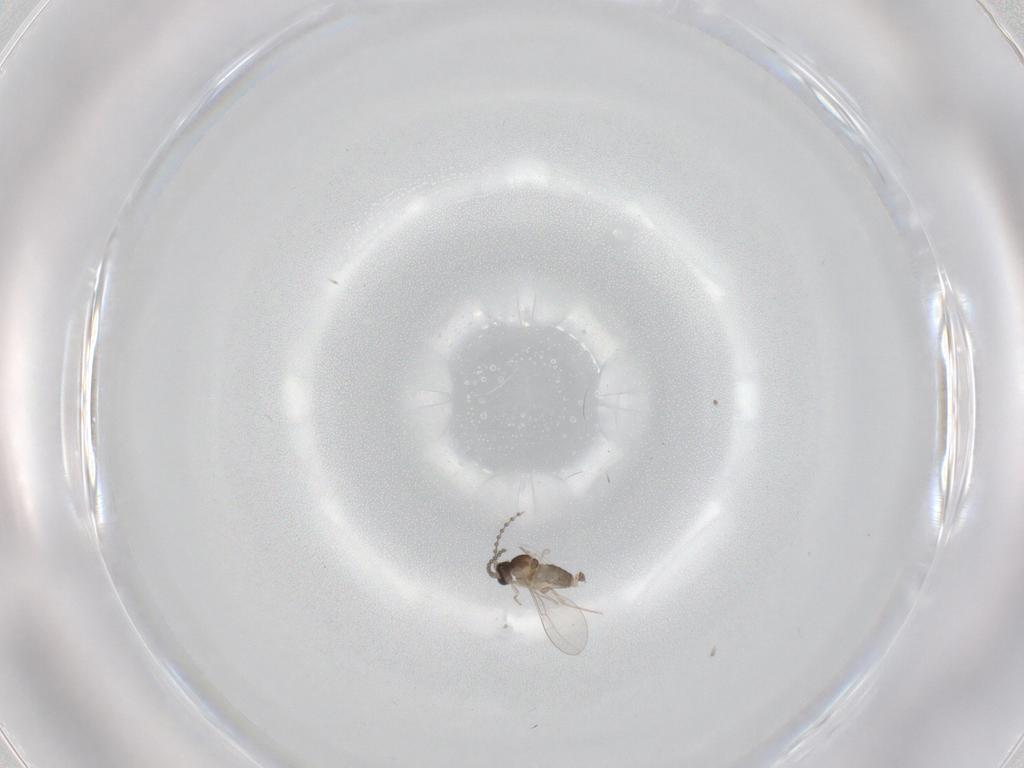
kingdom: Animalia
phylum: Arthropoda
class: Insecta
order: Diptera
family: Cecidomyiidae
